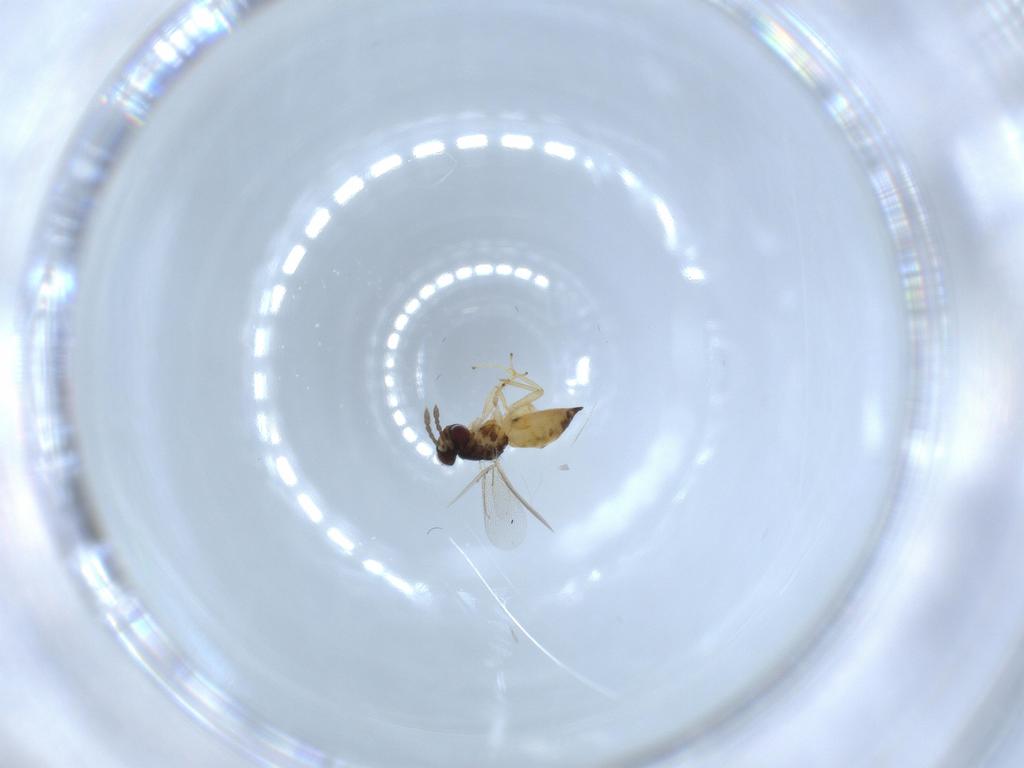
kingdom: Animalia
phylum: Arthropoda
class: Insecta
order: Hymenoptera
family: Eulophidae
